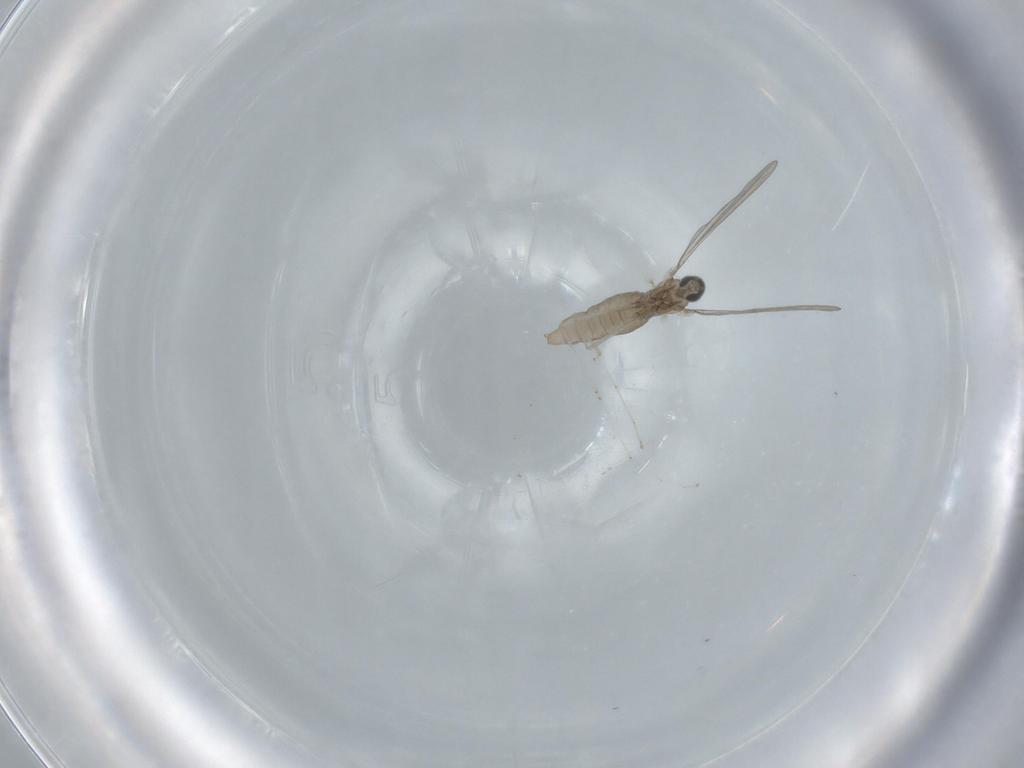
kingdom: Animalia
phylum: Arthropoda
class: Insecta
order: Diptera
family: Cecidomyiidae
